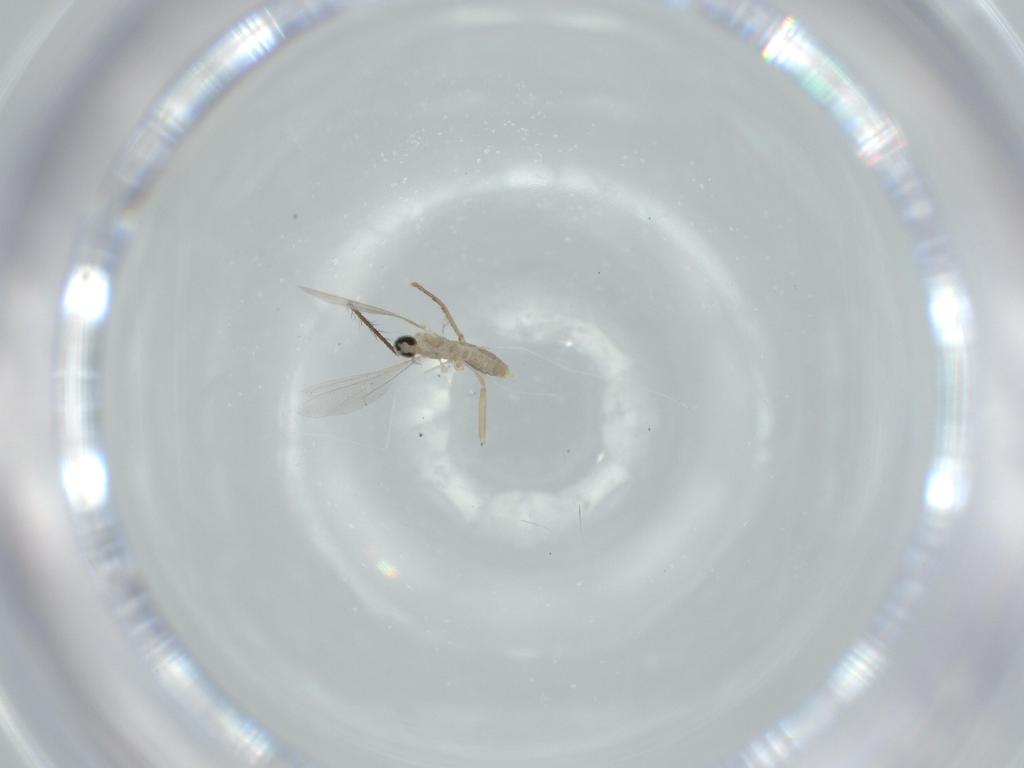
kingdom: Animalia
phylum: Arthropoda
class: Insecta
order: Diptera
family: Cecidomyiidae
